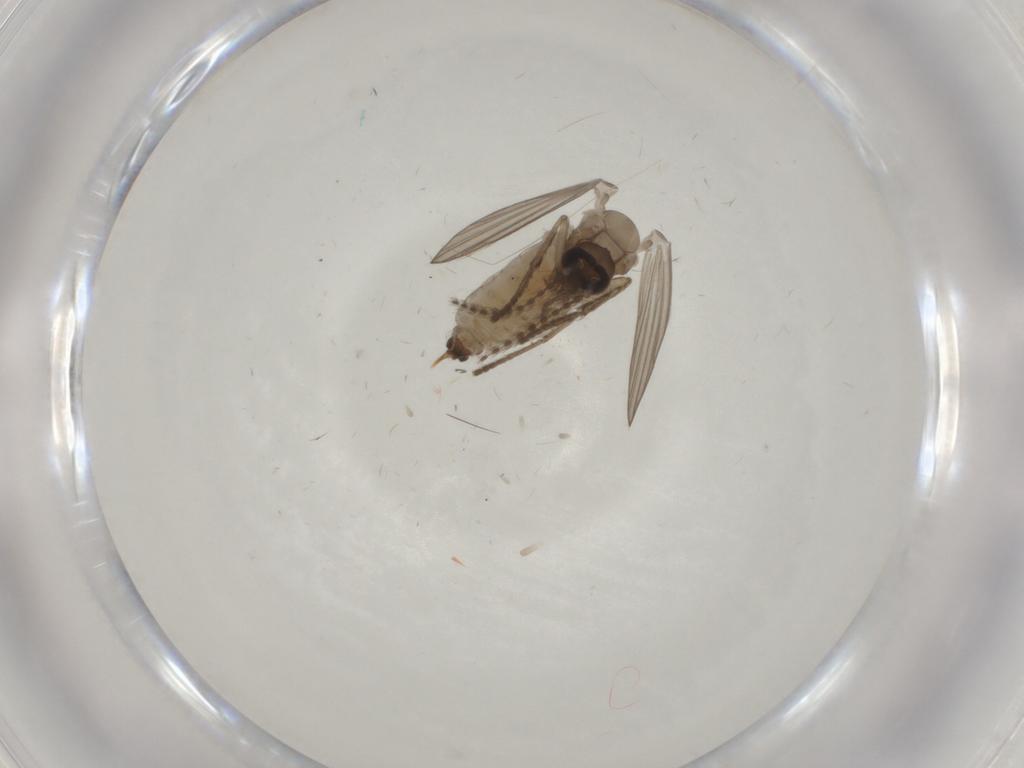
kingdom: Animalia
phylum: Arthropoda
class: Insecta
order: Diptera
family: Psychodidae
